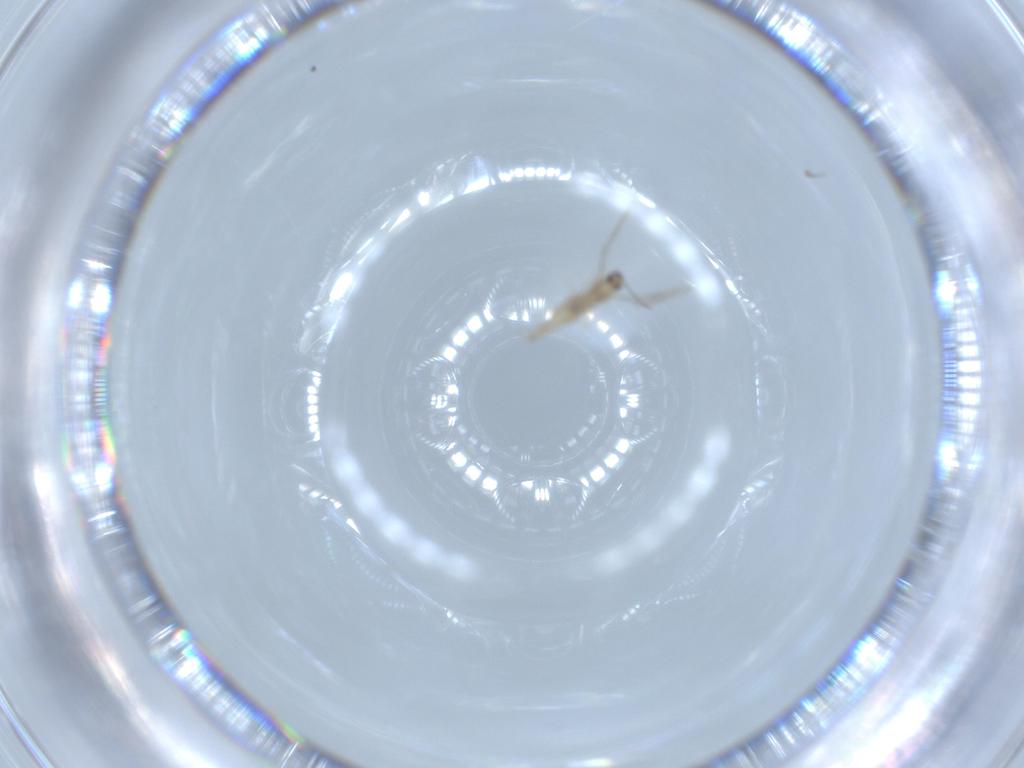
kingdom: Animalia
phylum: Arthropoda
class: Insecta
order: Diptera
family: Cecidomyiidae
